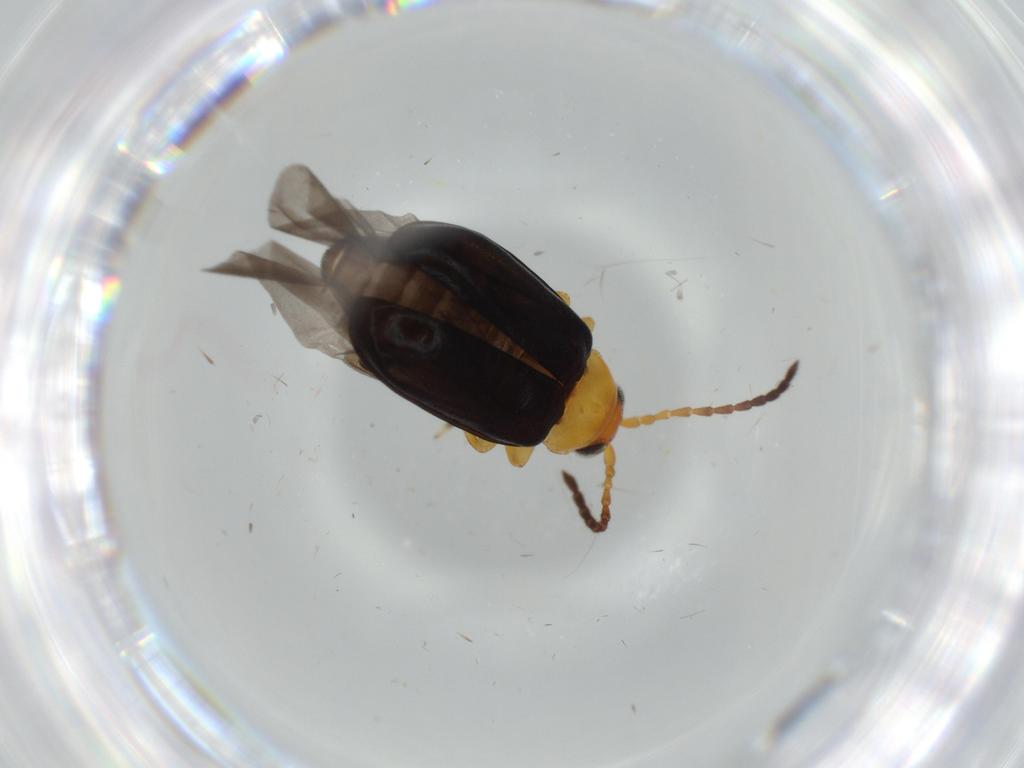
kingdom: Animalia
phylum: Arthropoda
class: Insecta
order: Coleoptera
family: Chrysomelidae
